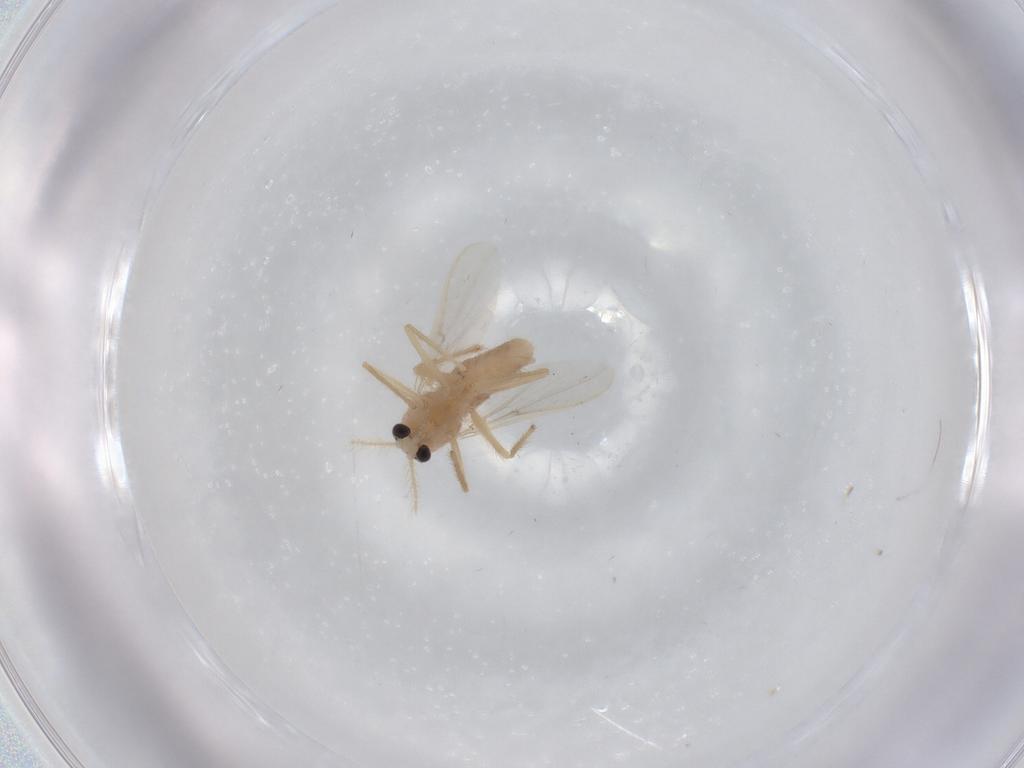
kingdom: Animalia
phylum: Arthropoda
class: Insecta
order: Diptera
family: Chironomidae
